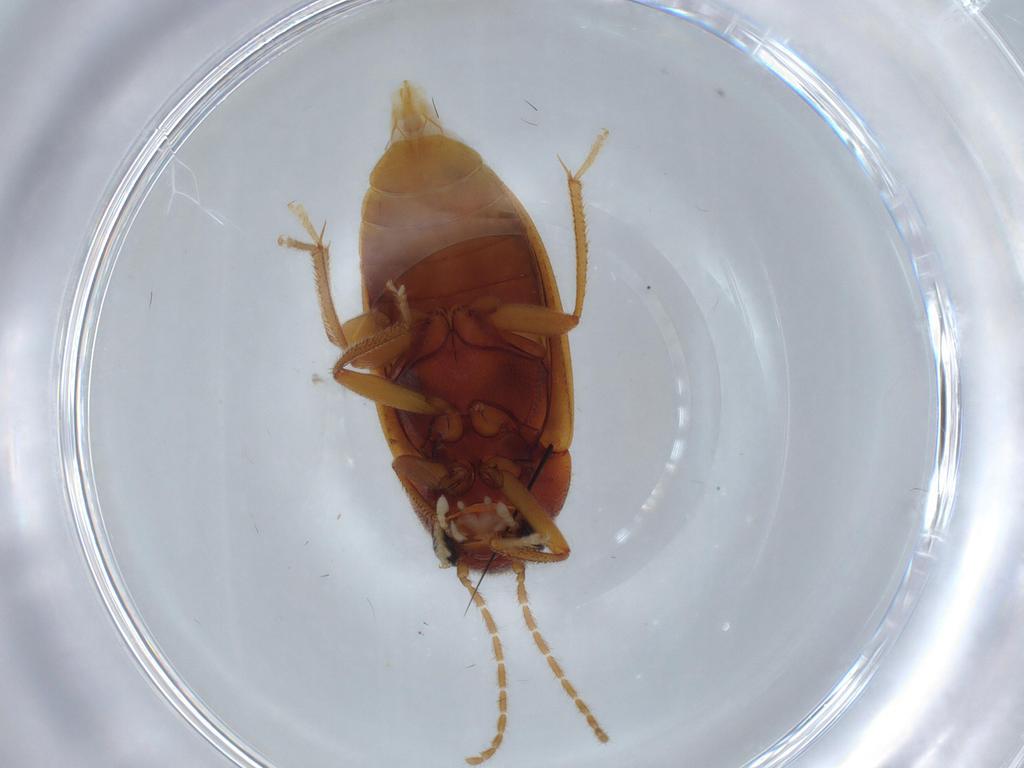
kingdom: Animalia
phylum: Arthropoda
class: Insecta
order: Coleoptera
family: Ptilodactylidae
